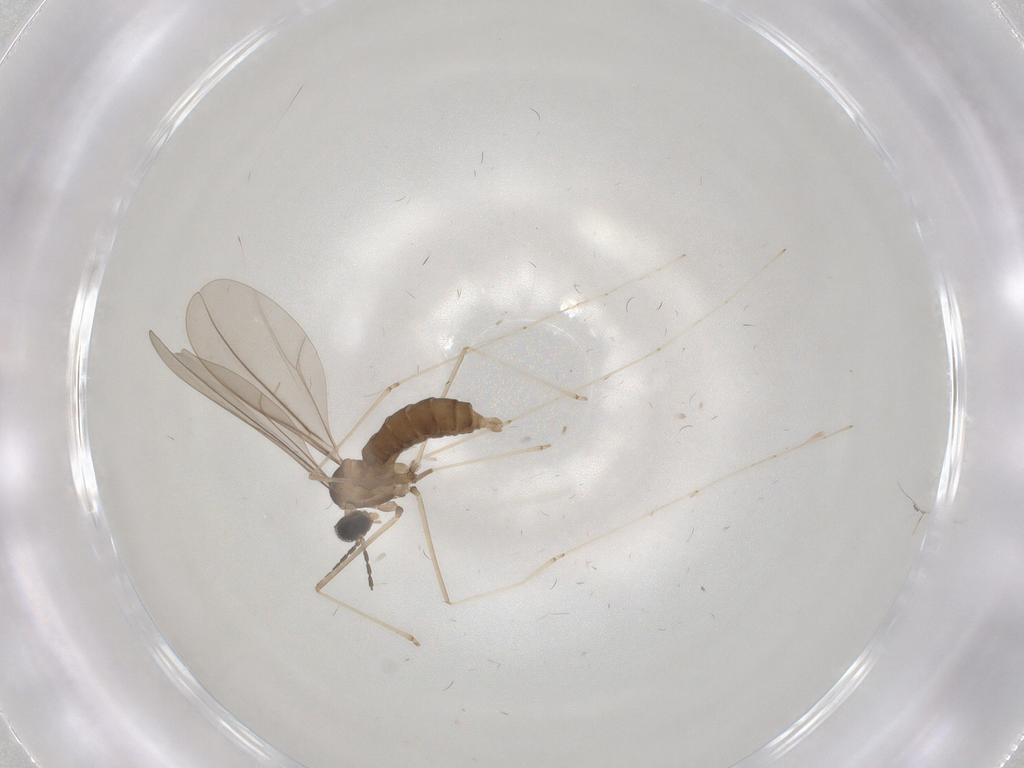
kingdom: Animalia
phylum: Arthropoda
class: Insecta
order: Diptera
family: Cecidomyiidae
